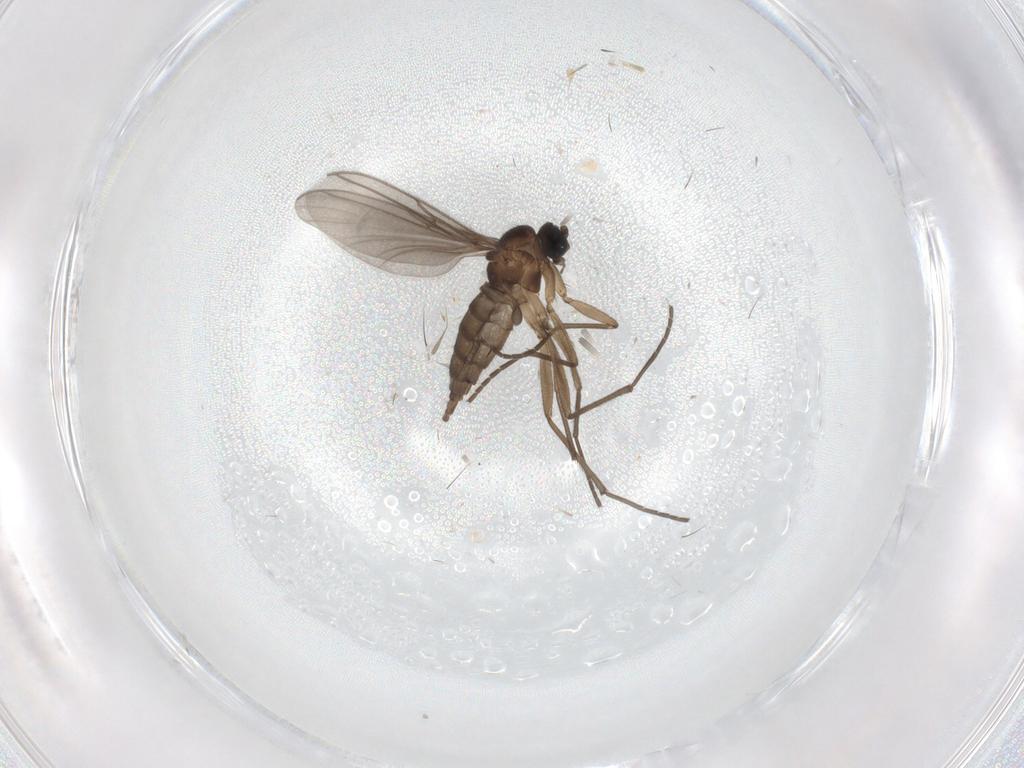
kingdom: Animalia
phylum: Arthropoda
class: Insecta
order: Diptera
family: Sciaridae
